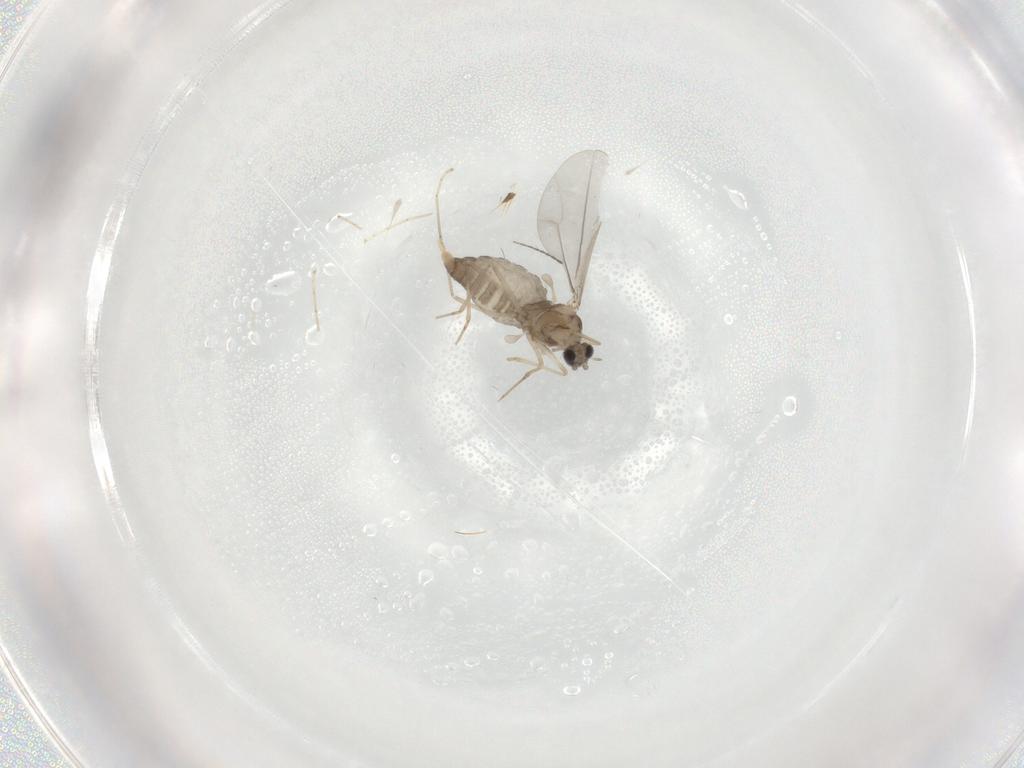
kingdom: Animalia
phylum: Arthropoda
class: Insecta
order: Diptera
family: Cecidomyiidae
